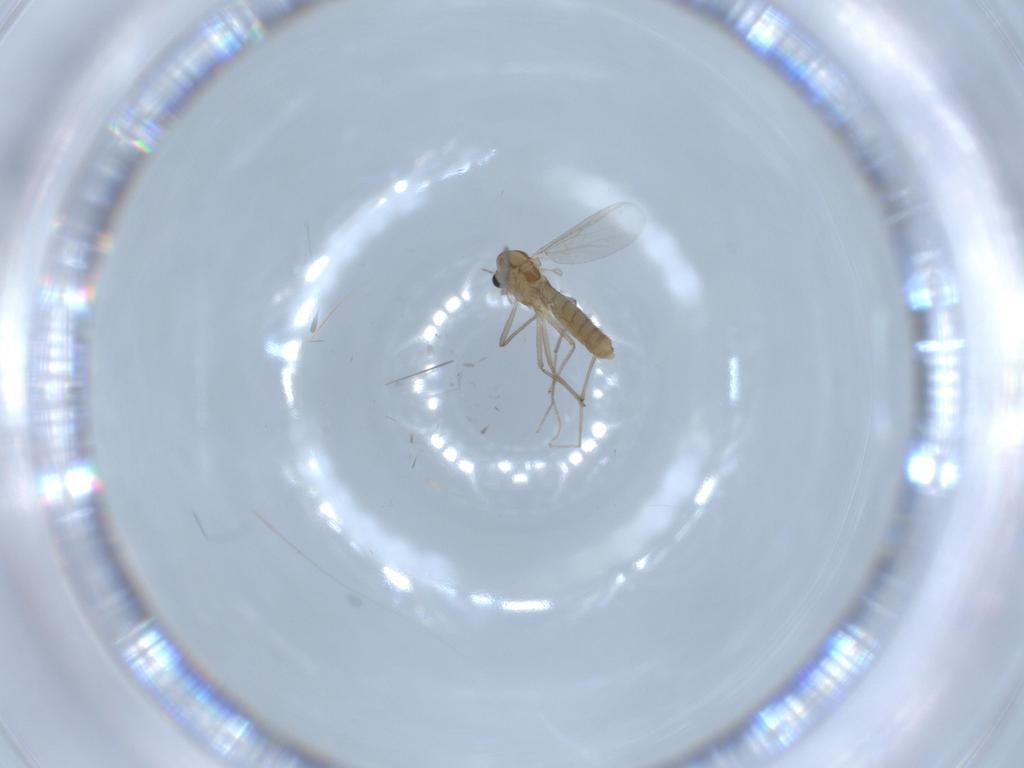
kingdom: Animalia
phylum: Arthropoda
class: Insecta
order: Diptera
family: Chironomidae
